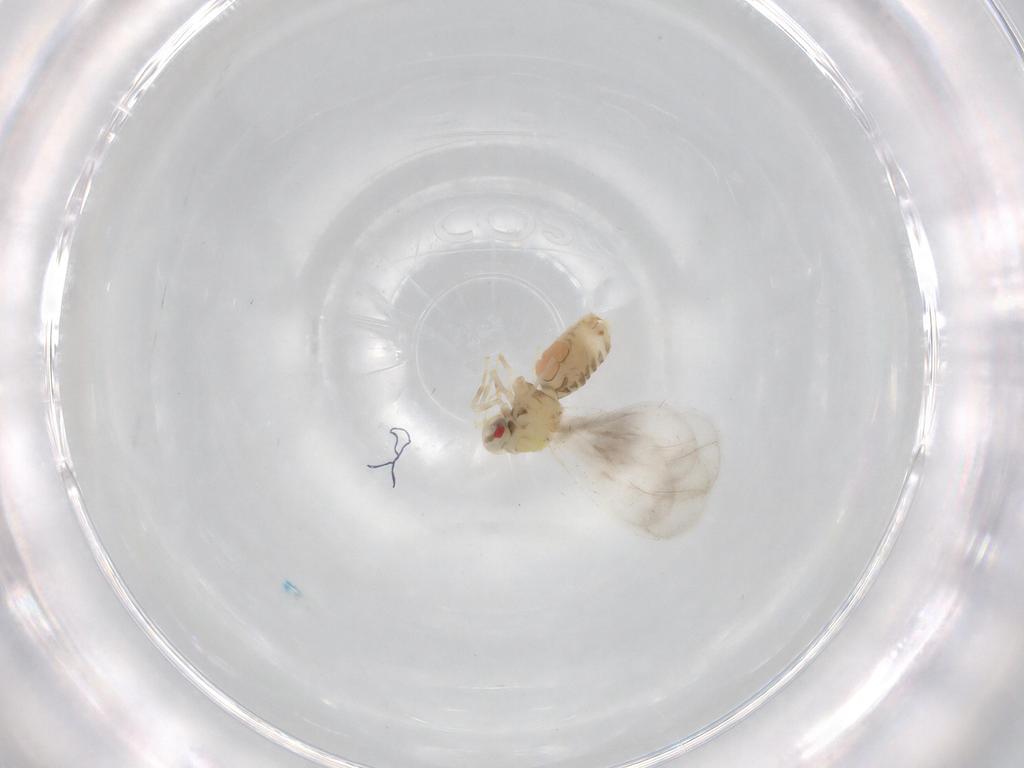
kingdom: Animalia
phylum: Arthropoda
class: Insecta
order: Hemiptera
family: Aleyrodidae
